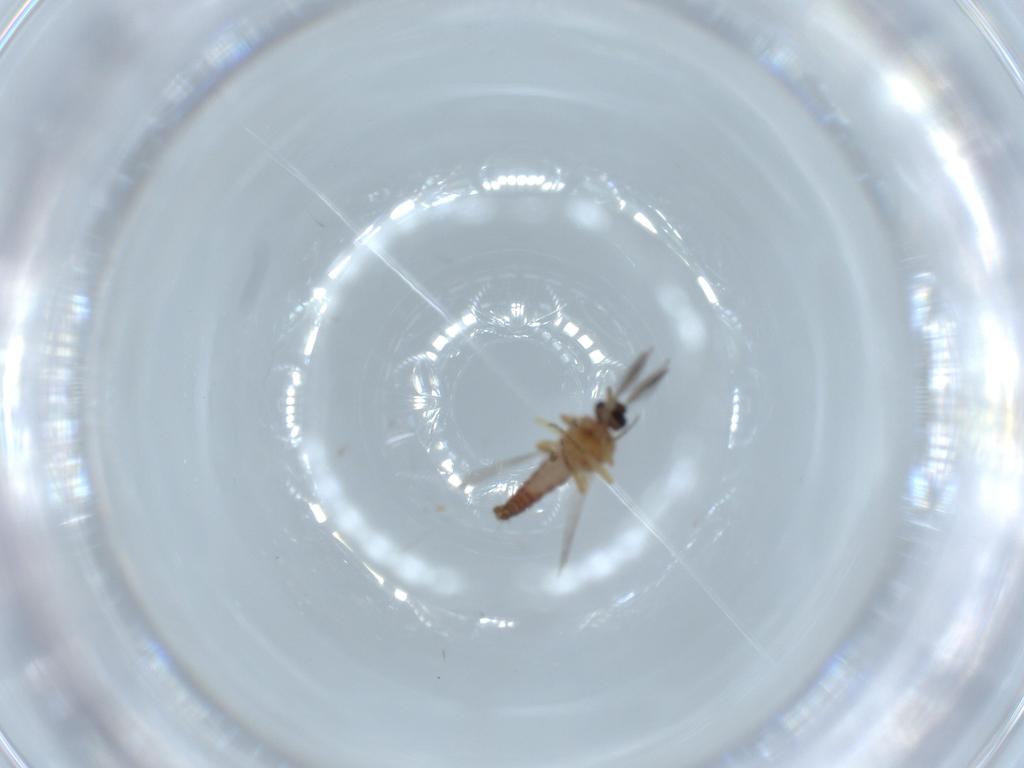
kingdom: Animalia
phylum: Arthropoda
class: Insecta
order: Diptera
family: Ceratopogonidae
